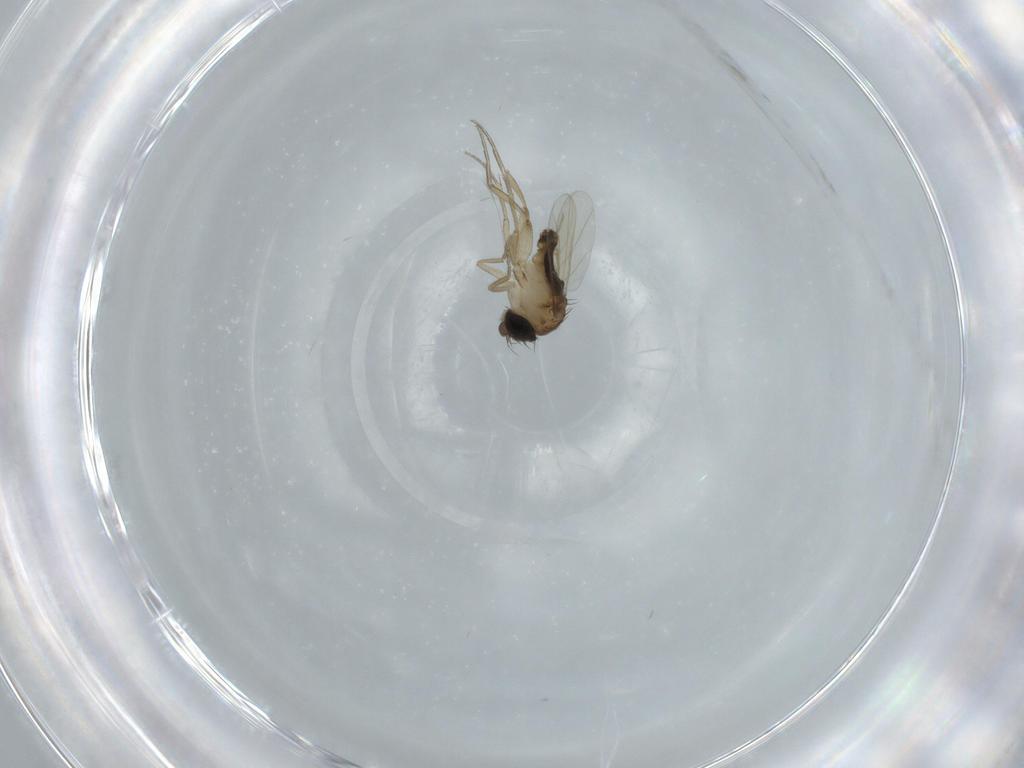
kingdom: Animalia
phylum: Arthropoda
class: Insecta
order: Diptera
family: Phoridae
